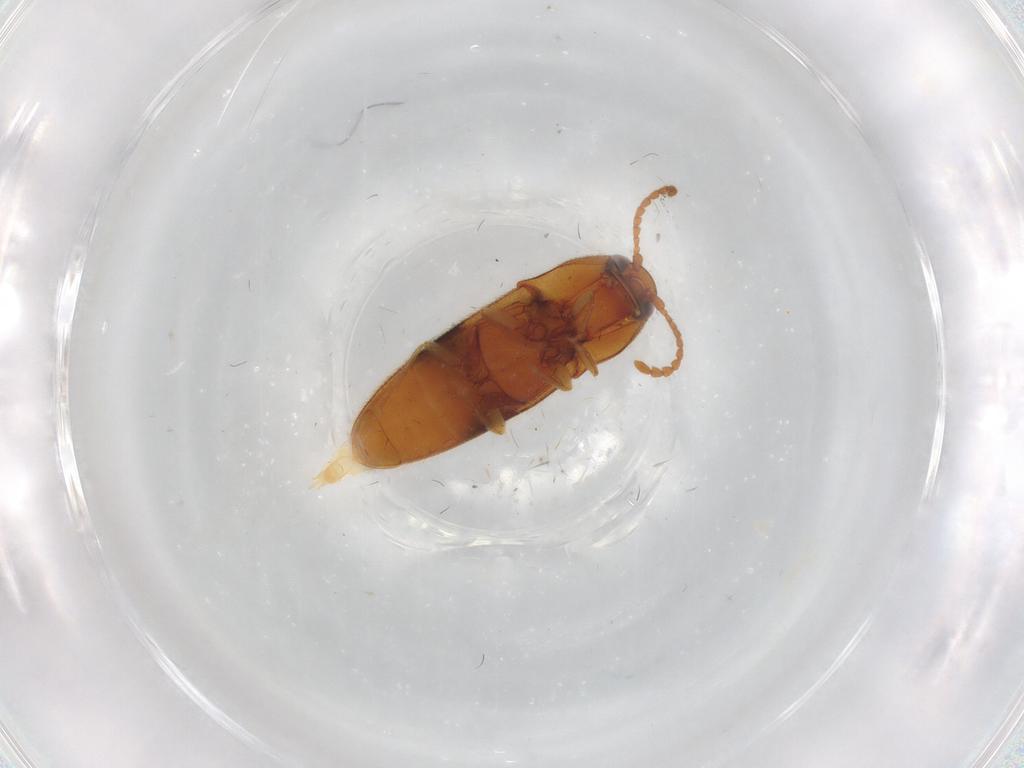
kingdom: Animalia
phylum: Arthropoda
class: Insecta
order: Coleoptera
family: Elateridae
